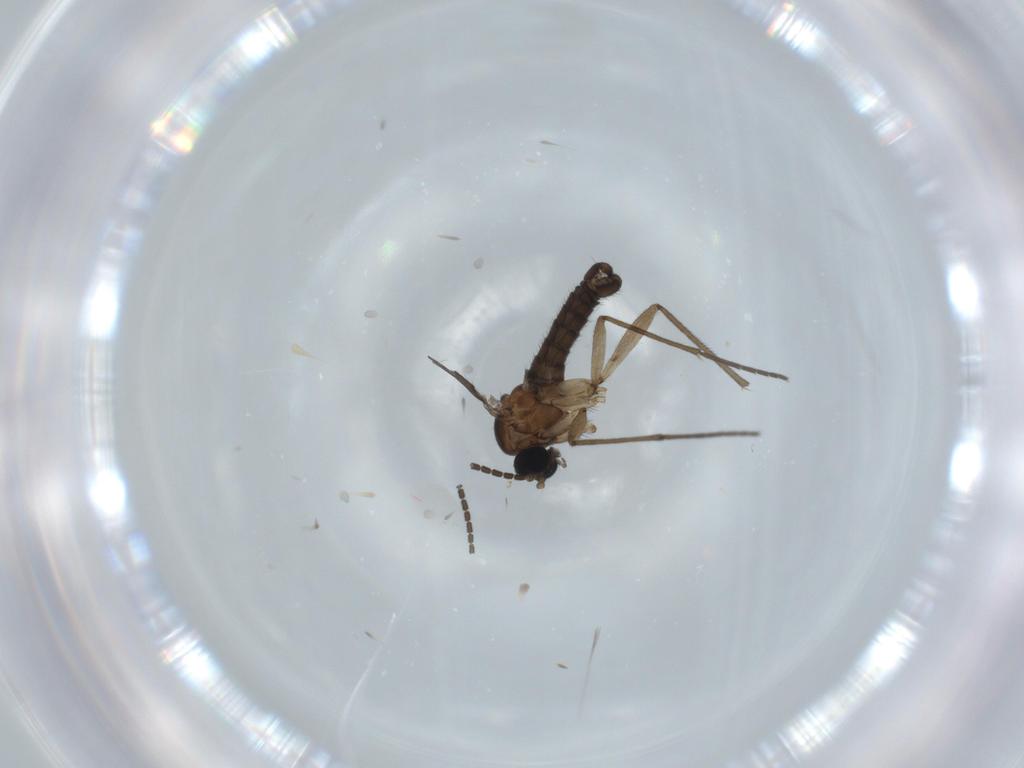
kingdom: Animalia
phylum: Arthropoda
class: Insecta
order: Diptera
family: Sciaridae
